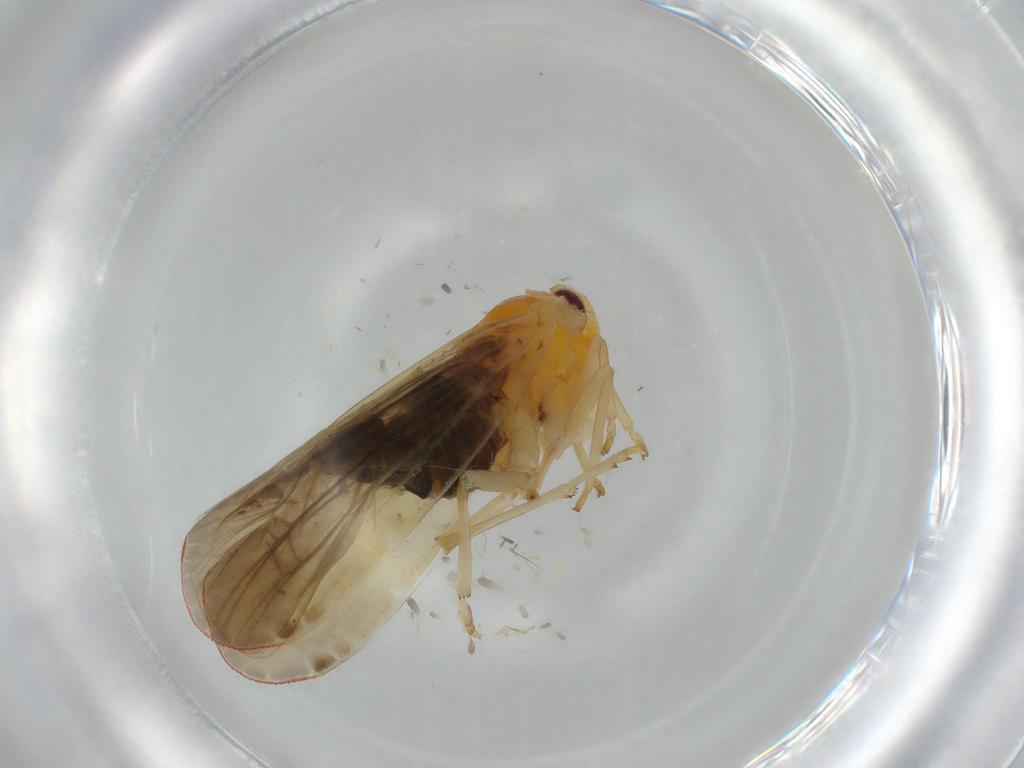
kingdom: Animalia
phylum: Arthropoda
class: Insecta
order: Hemiptera
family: Derbidae
